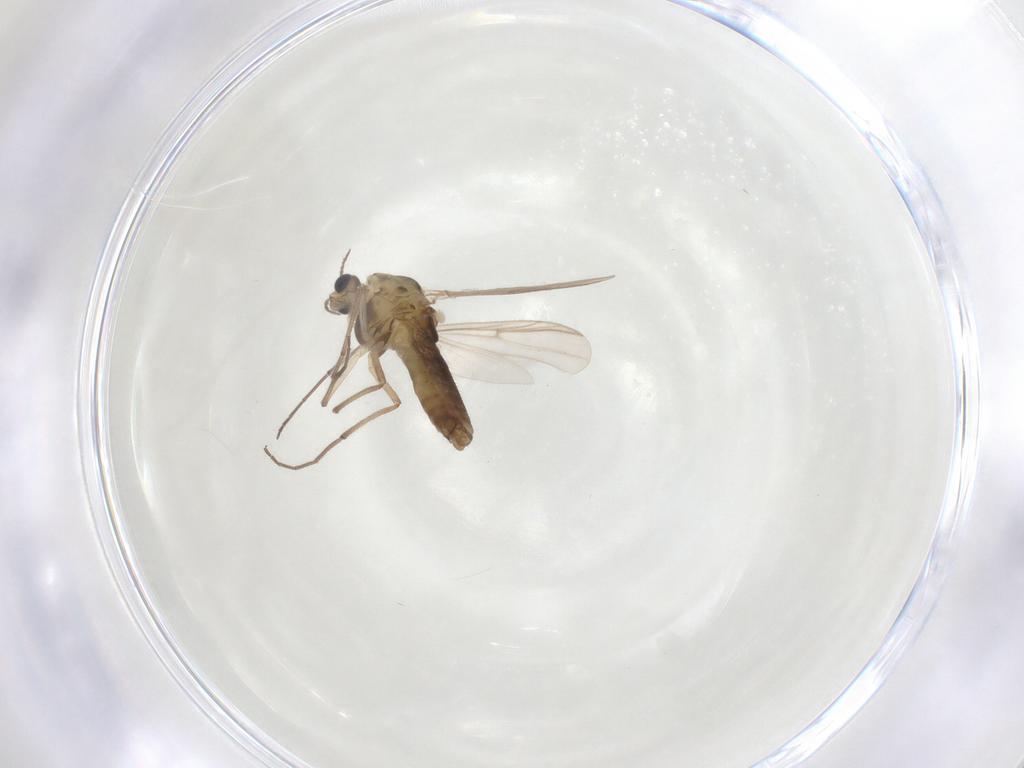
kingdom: Animalia
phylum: Arthropoda
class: Insecta
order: Diptera
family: Chironomidae
